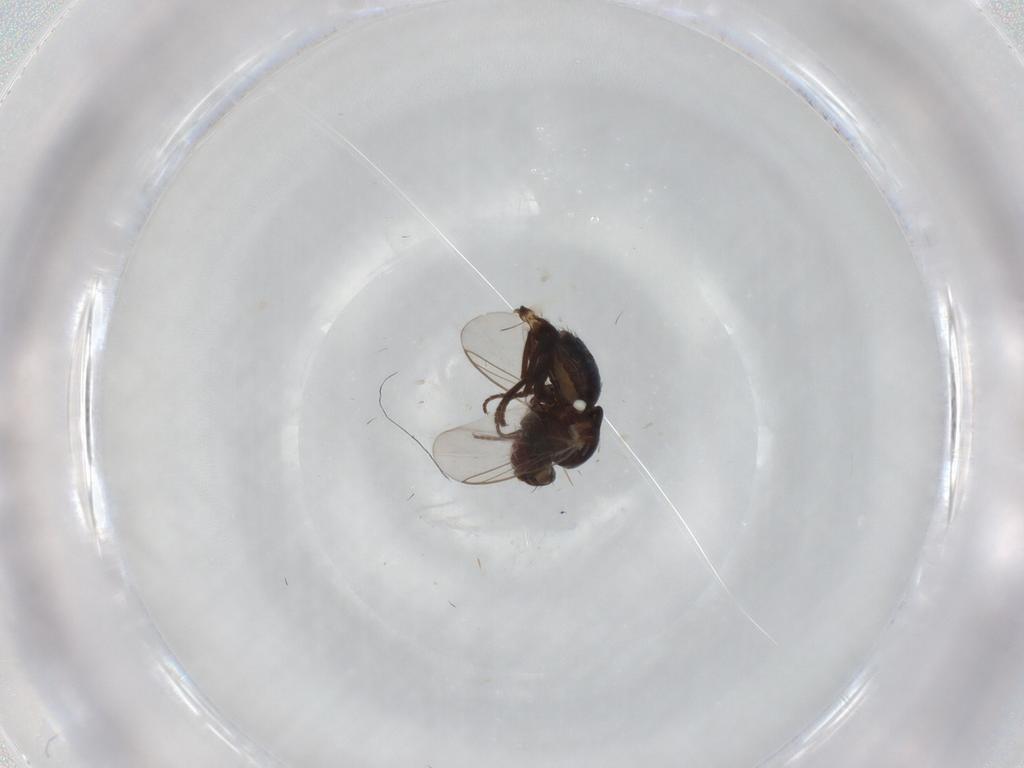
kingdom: Animalia
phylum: Arthropoda
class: Insecta
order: Diptera
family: Agromyzidae
